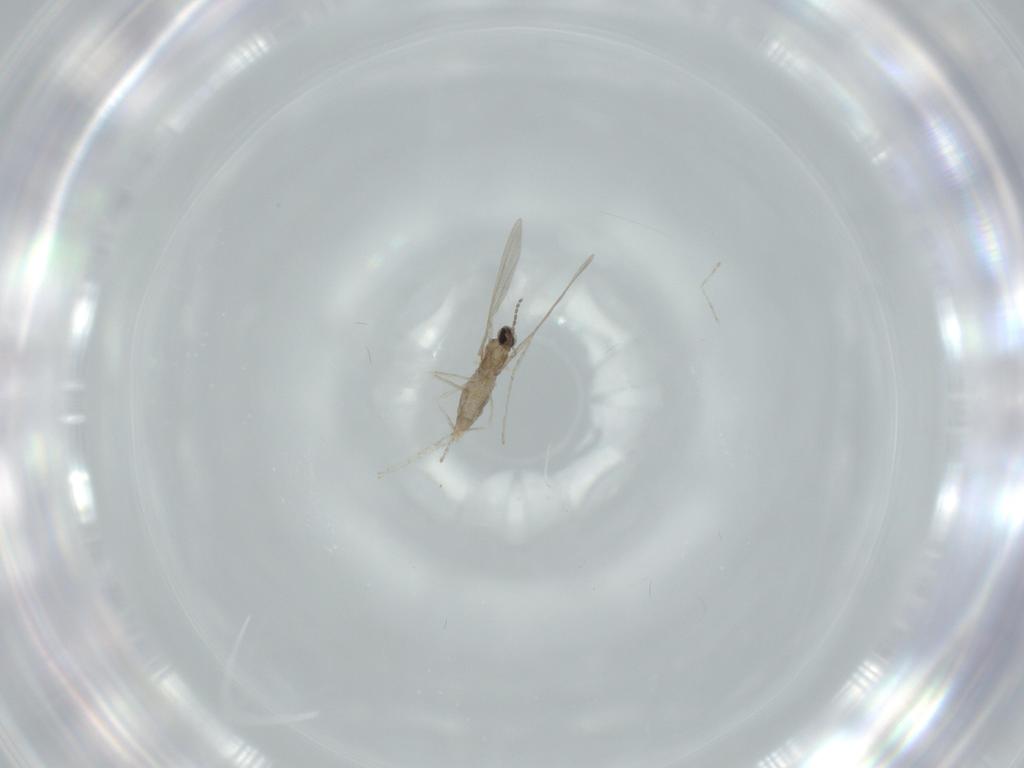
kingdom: Animalia
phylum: Arthropoda
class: Insecta
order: Diptera
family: Cecidomyiidae
